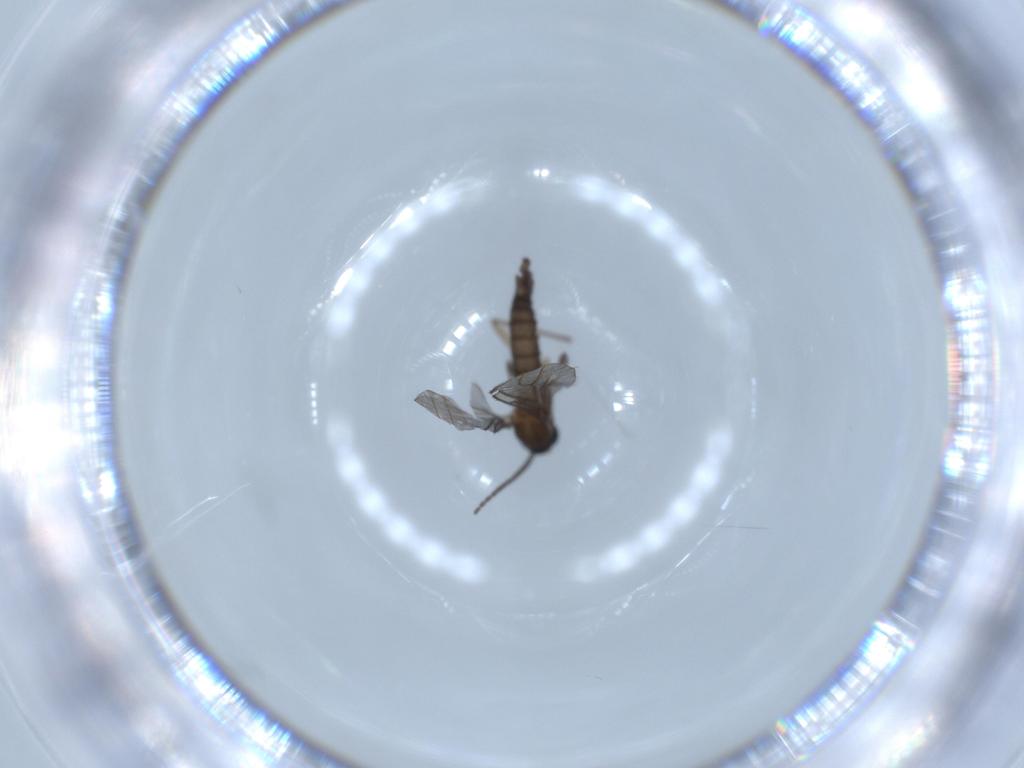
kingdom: Animalia
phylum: Arthropoda
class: Insecta
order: Diptera
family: Sciaridae
